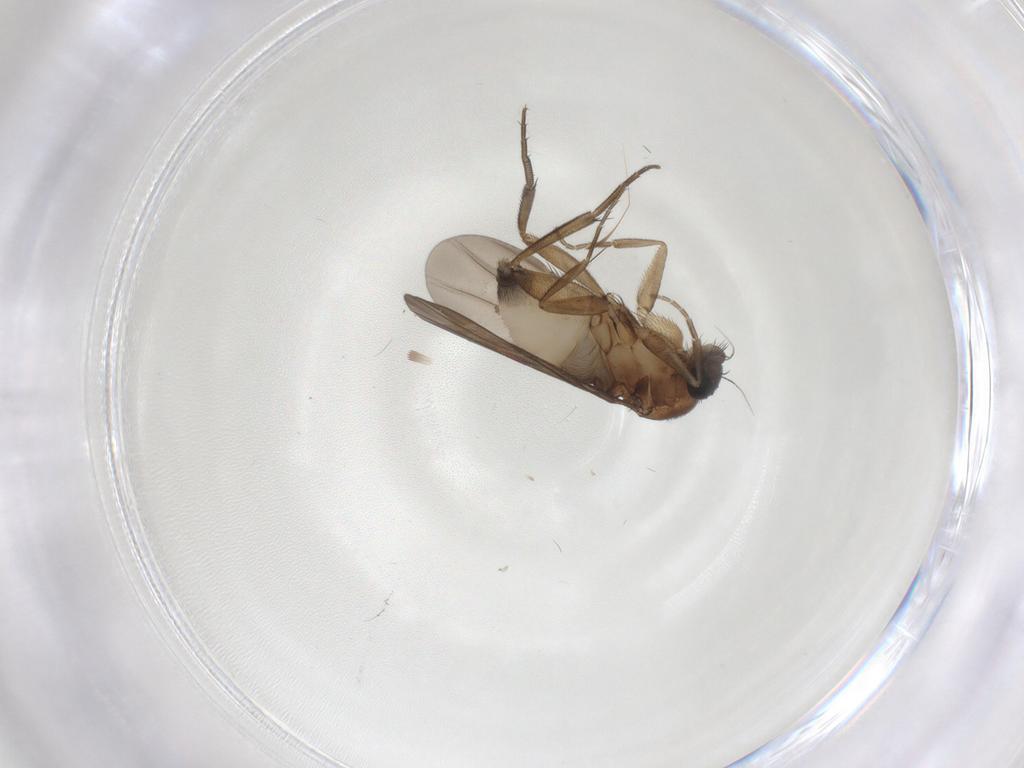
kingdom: Animalia
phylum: Arthropoda
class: Insecta
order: Diptera
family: Phoridae
